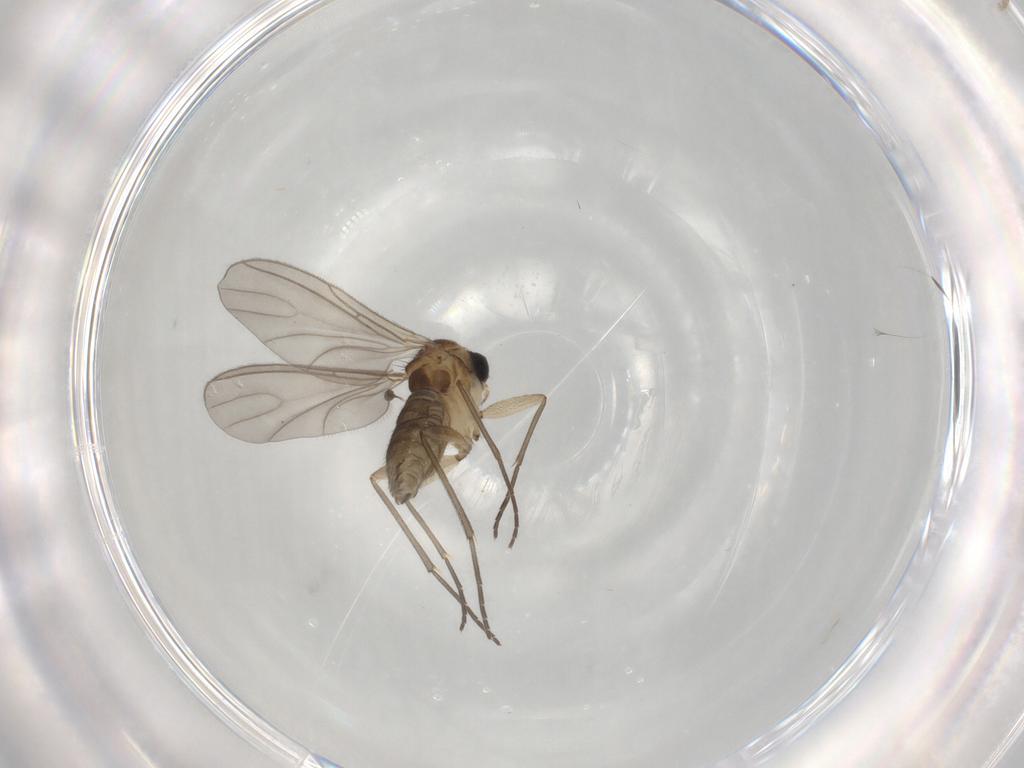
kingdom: Animalia
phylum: Arthropoda
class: Insecta
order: Diptera
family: Sciaridae
